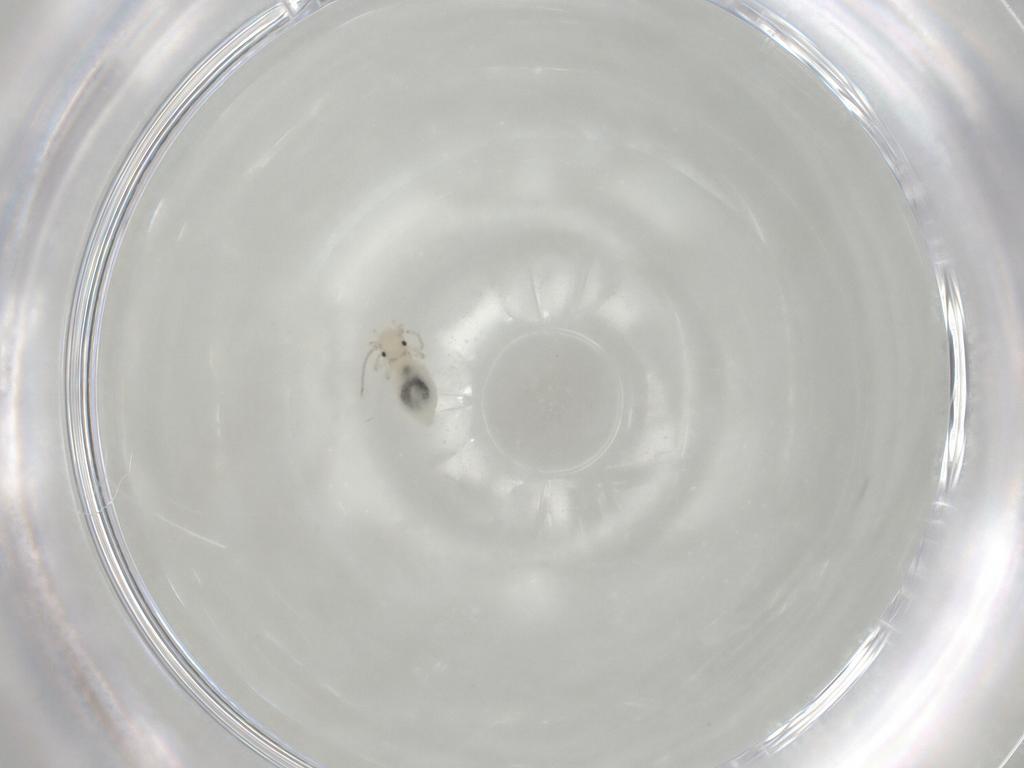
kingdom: Animalia
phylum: Arthropoda
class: Insecta
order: Psocodea
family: Caeciliusidae
